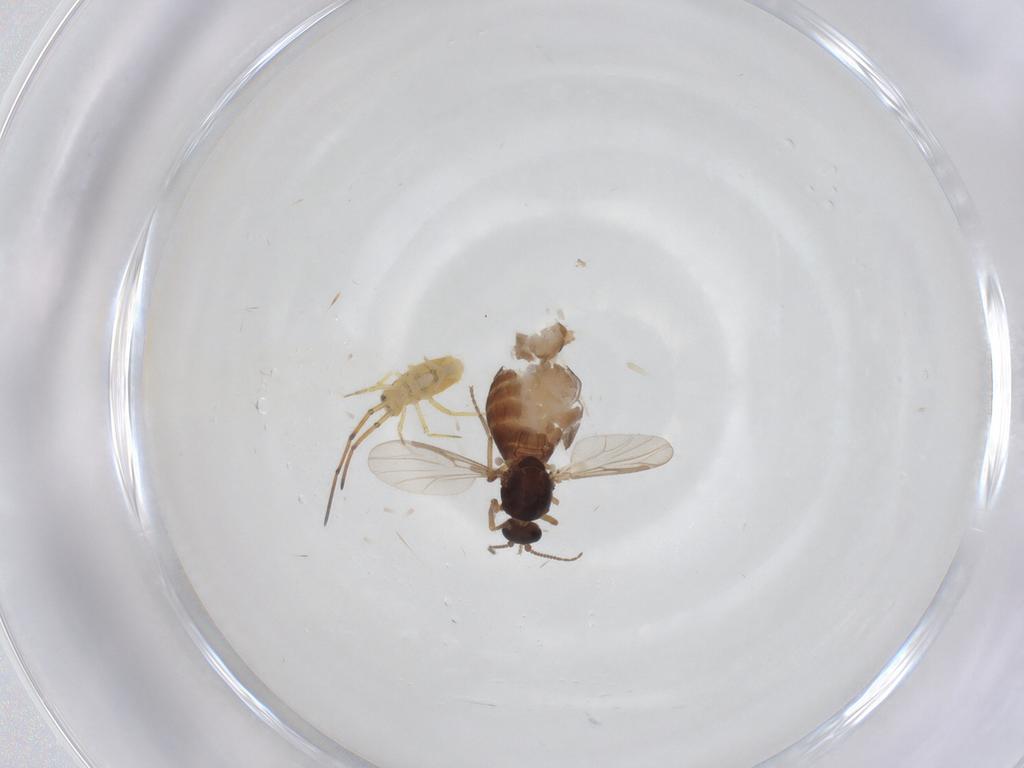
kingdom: Animalia
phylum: Arthropoda
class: Insecta
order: Diptera
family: Ceratopogonidae
